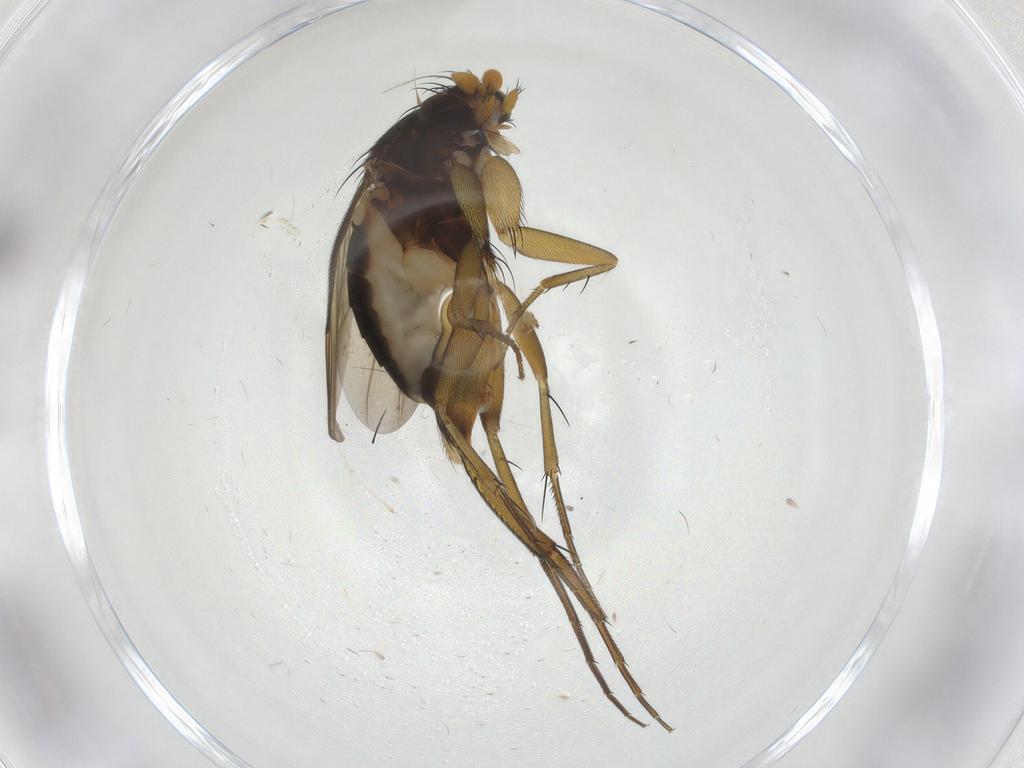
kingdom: Animalia
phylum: Arthropoda
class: Insecta
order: Diptera
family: Phoridae
